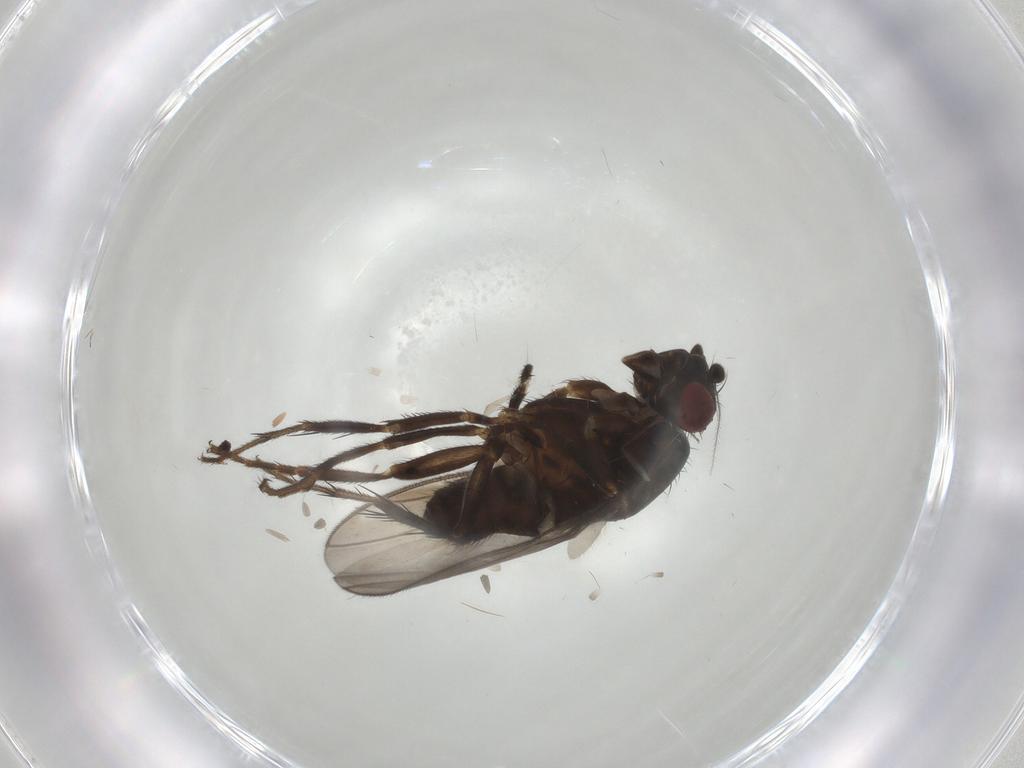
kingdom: Animalia
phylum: Arthropoda
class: Insecta
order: Diptera
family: Sphaeroceridae
